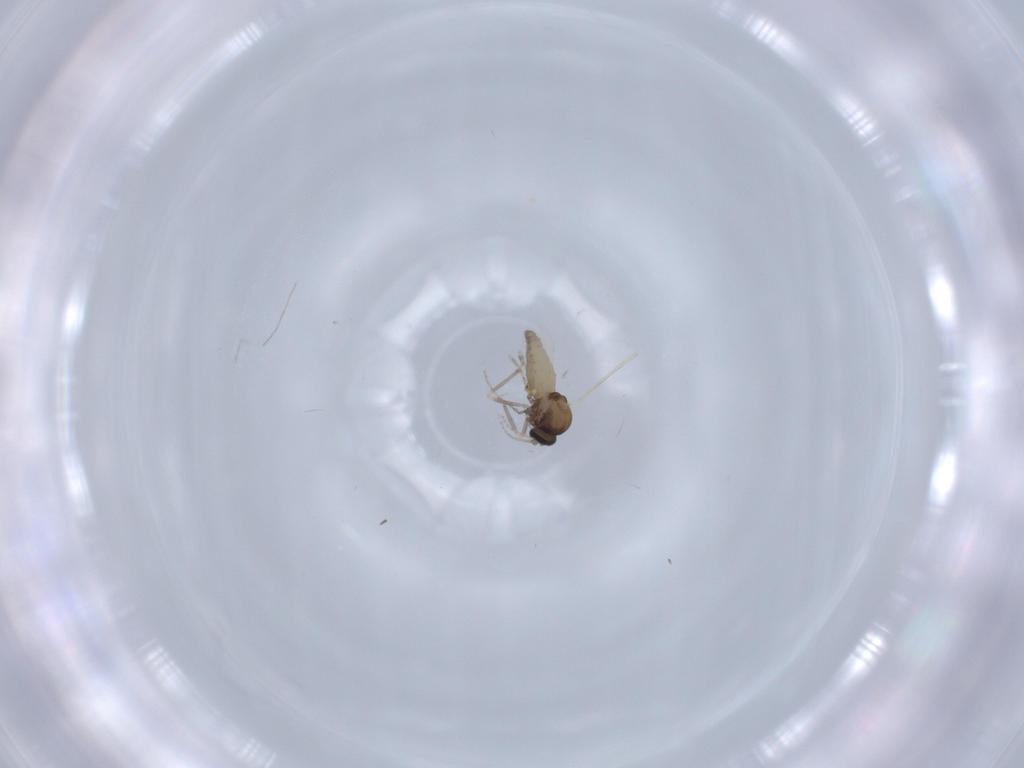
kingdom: Animalia
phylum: Arthropoda
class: Insecta
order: Diptera
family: Ceratopogonidae
